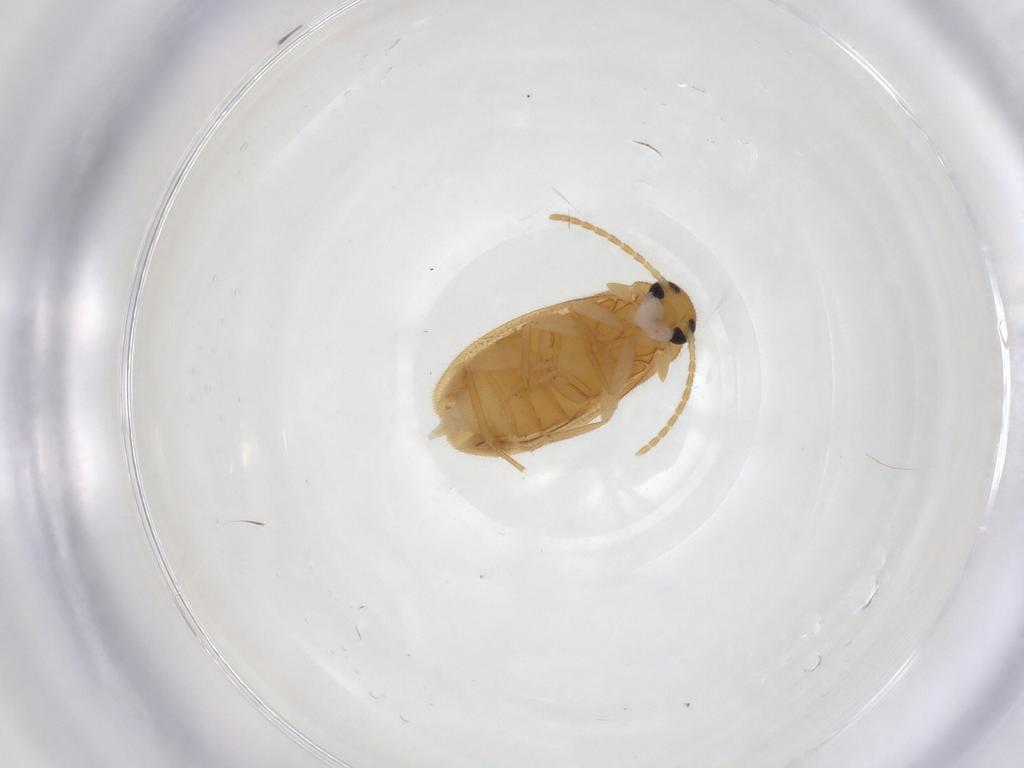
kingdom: Animalia
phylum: Arthropoda
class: Insecta
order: Coleoptera
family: Scraptiidae
